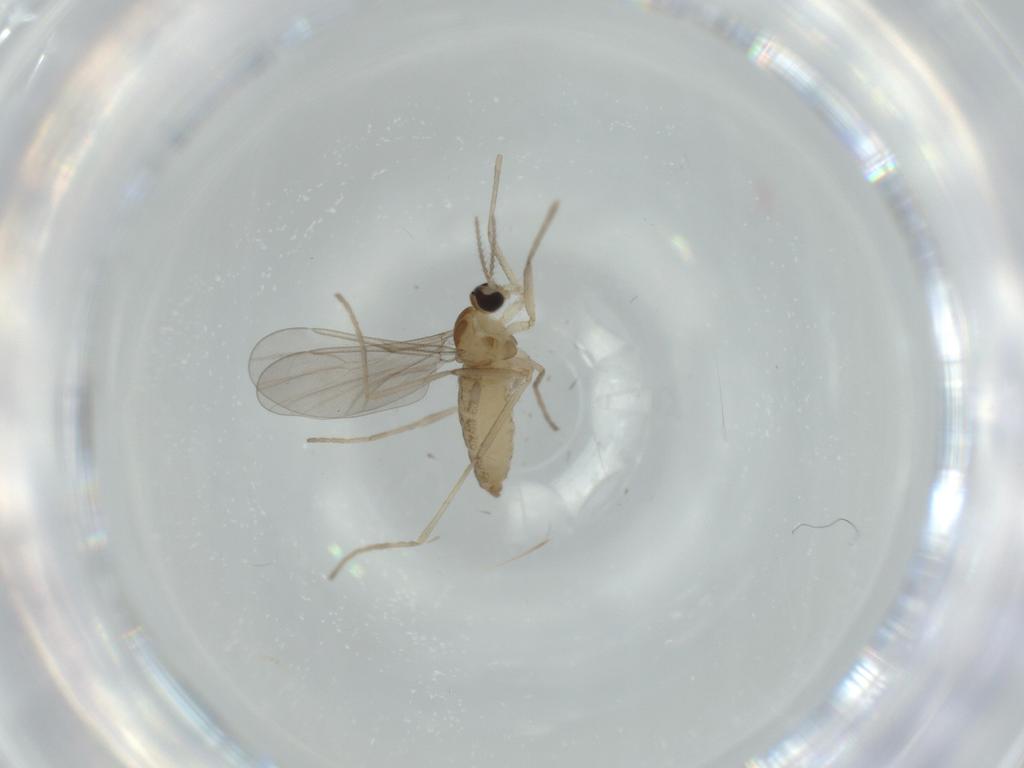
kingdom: Animalia
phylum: Arthropoda
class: Insecta
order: Diptera
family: Cecidomyiidae
